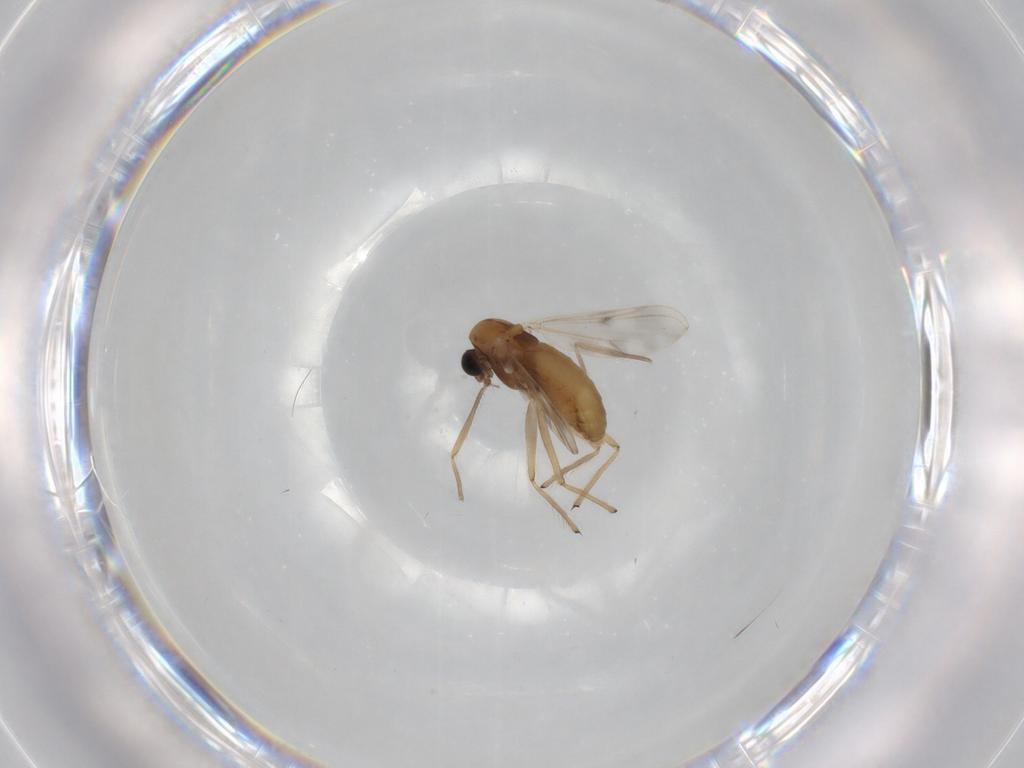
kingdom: Animalia
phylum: Arthropoda
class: Insecta
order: Diptera
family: Chironomidae
